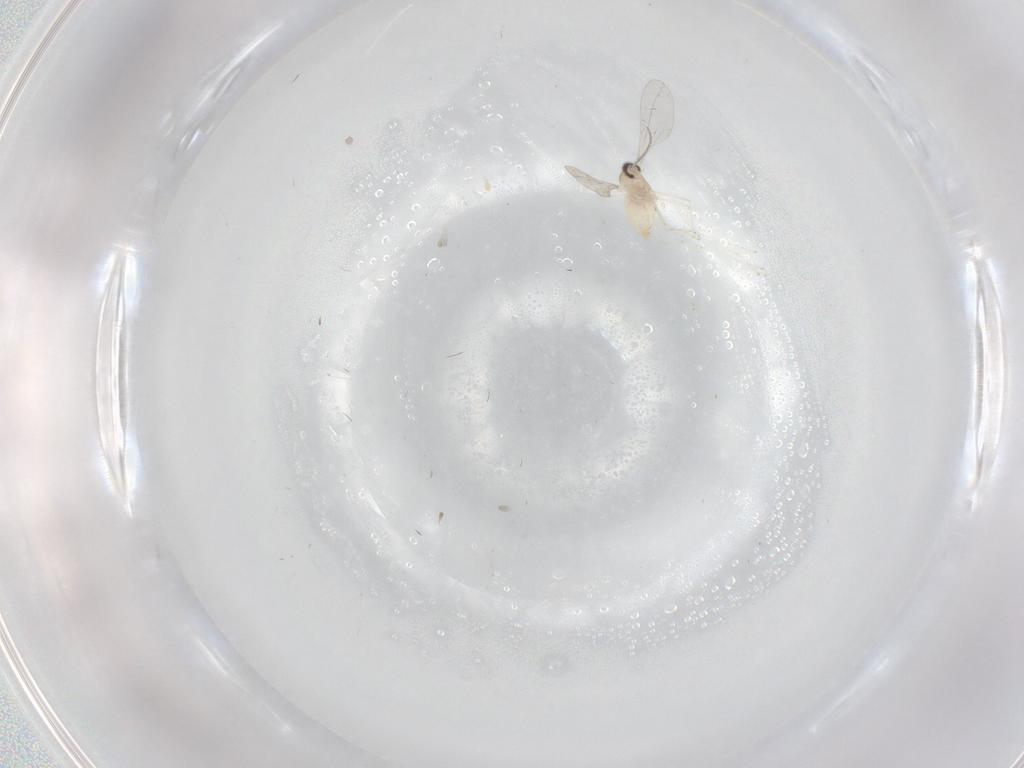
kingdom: Animalia
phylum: Arthropoda
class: Insecta
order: Diptera
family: Cecidomyiidae
